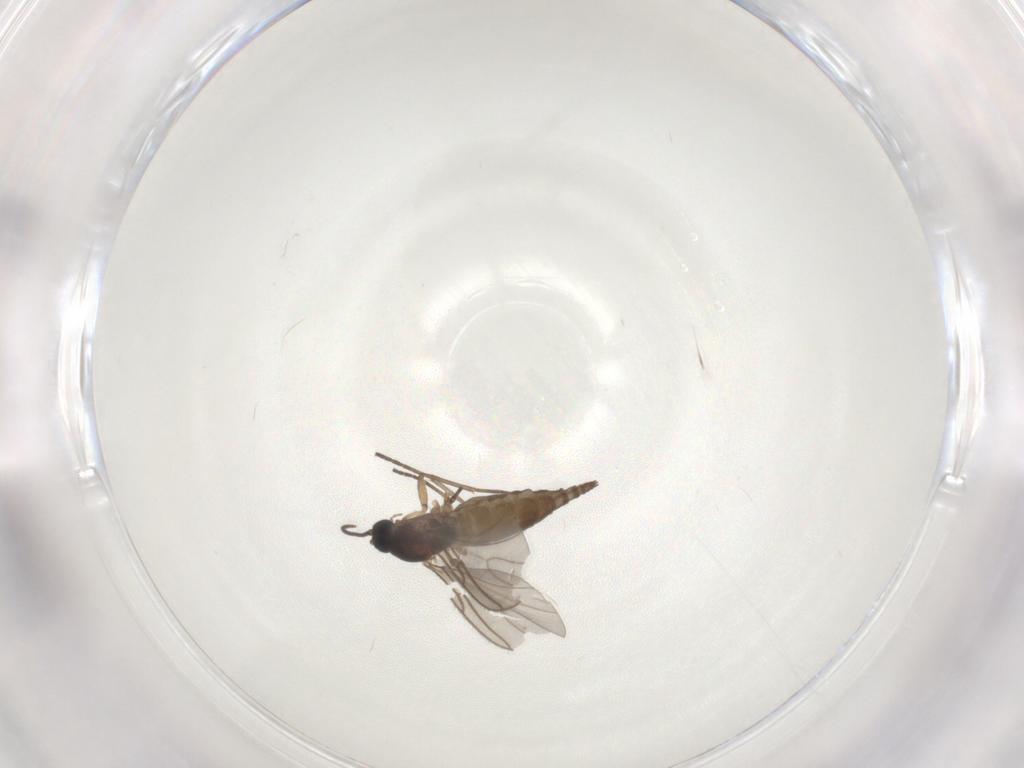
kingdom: Animalia
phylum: Arthropoda
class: Insecta
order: Diptera
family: Sciaridae
